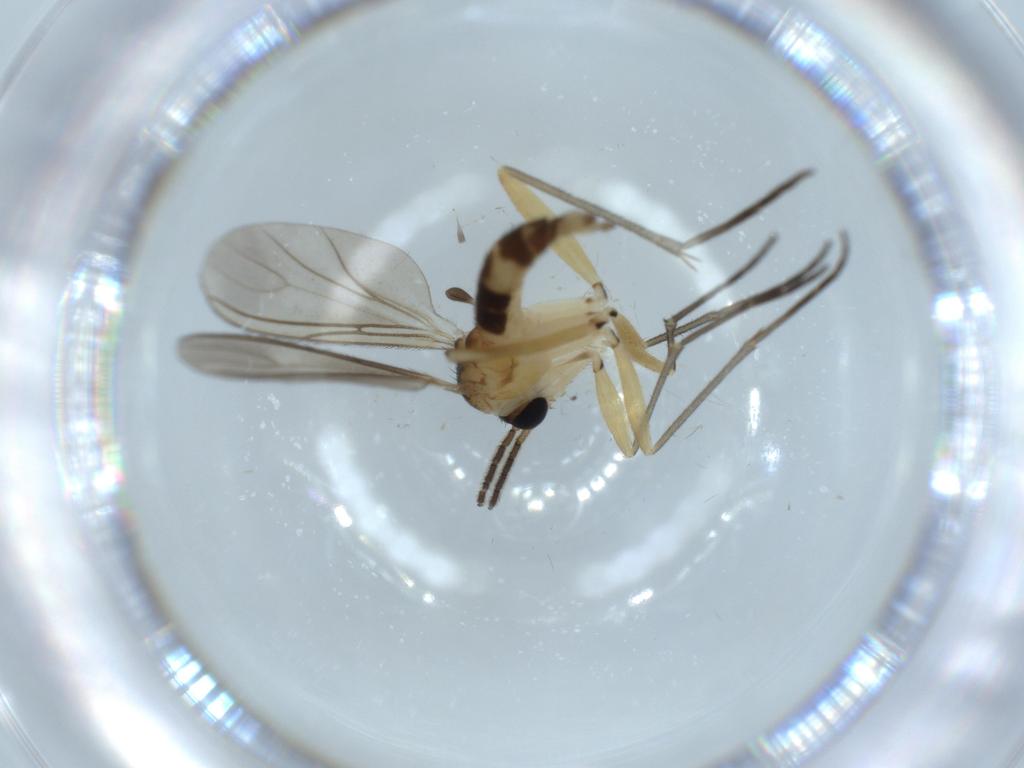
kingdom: Animalia
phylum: Arthropoda
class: Insecta
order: Diptera
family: Sciaridae
